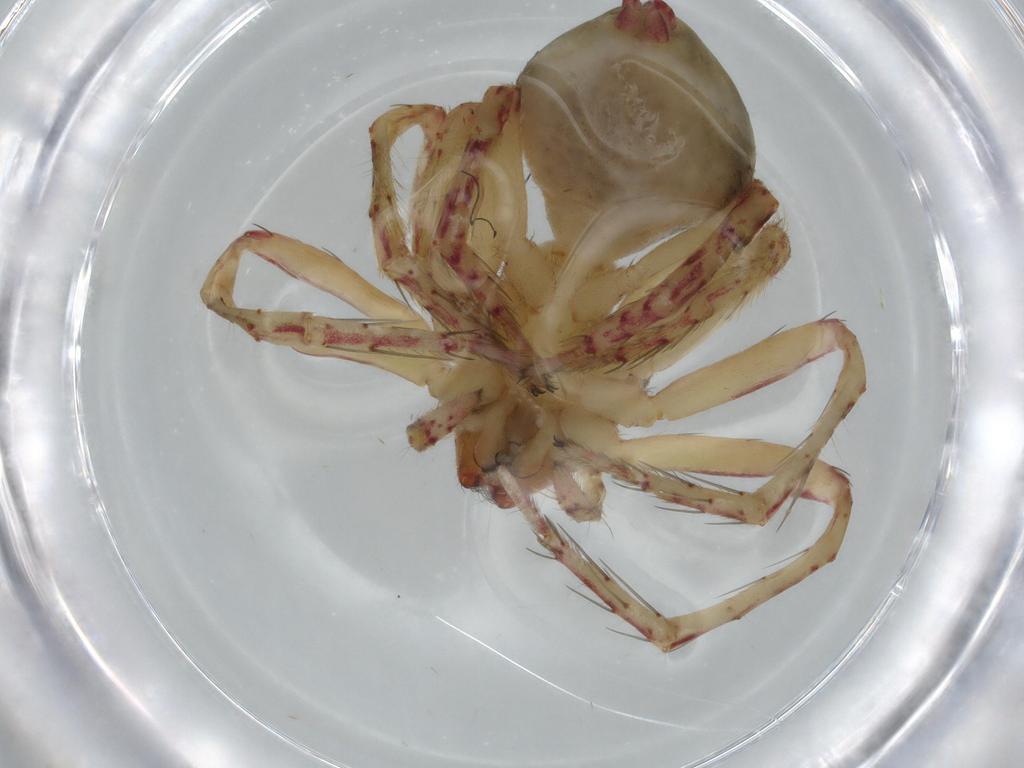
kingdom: Animalia
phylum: Arthropoda
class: Arachnida
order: Araneae
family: Oxyopidae
